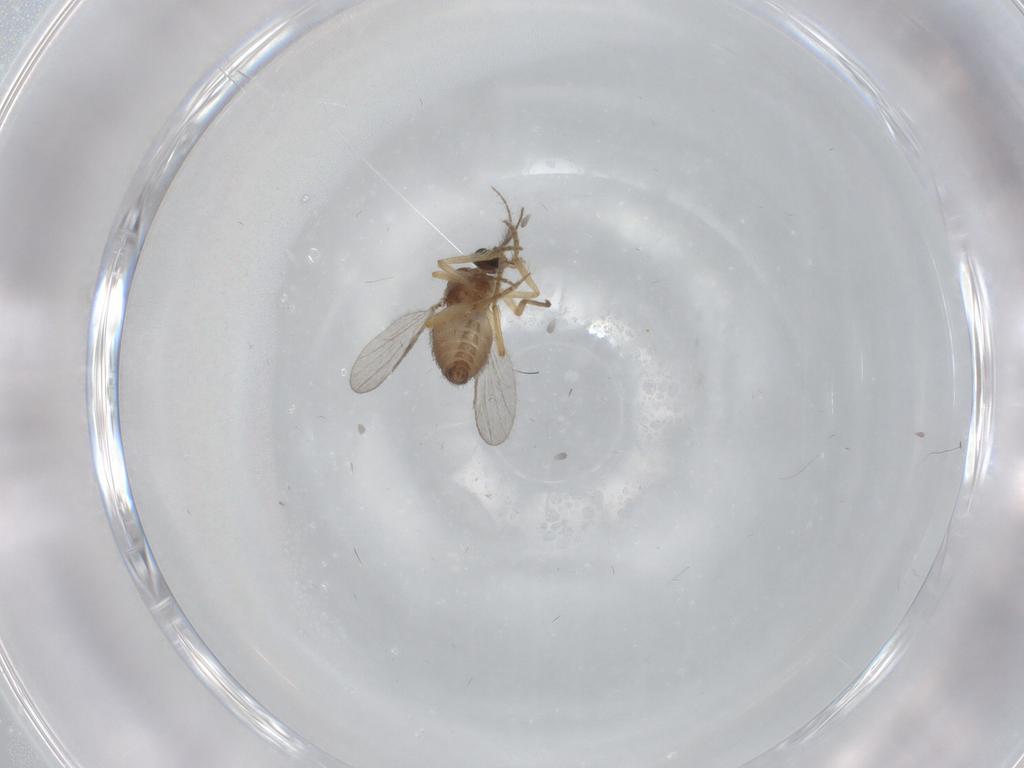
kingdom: Animalia
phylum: Arthropoda
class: Insecta
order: Diptera
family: Ceratopogonidae
